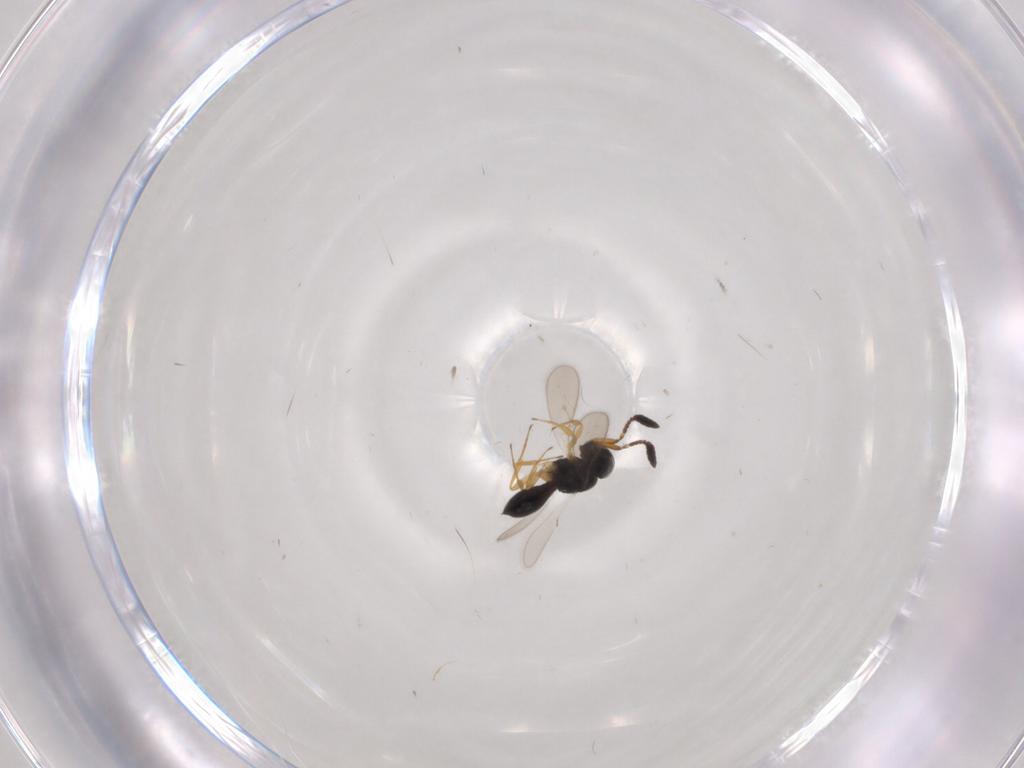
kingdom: Animalia
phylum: Arthropoda
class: Insecta
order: Hymenoptera
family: Scelionidae
